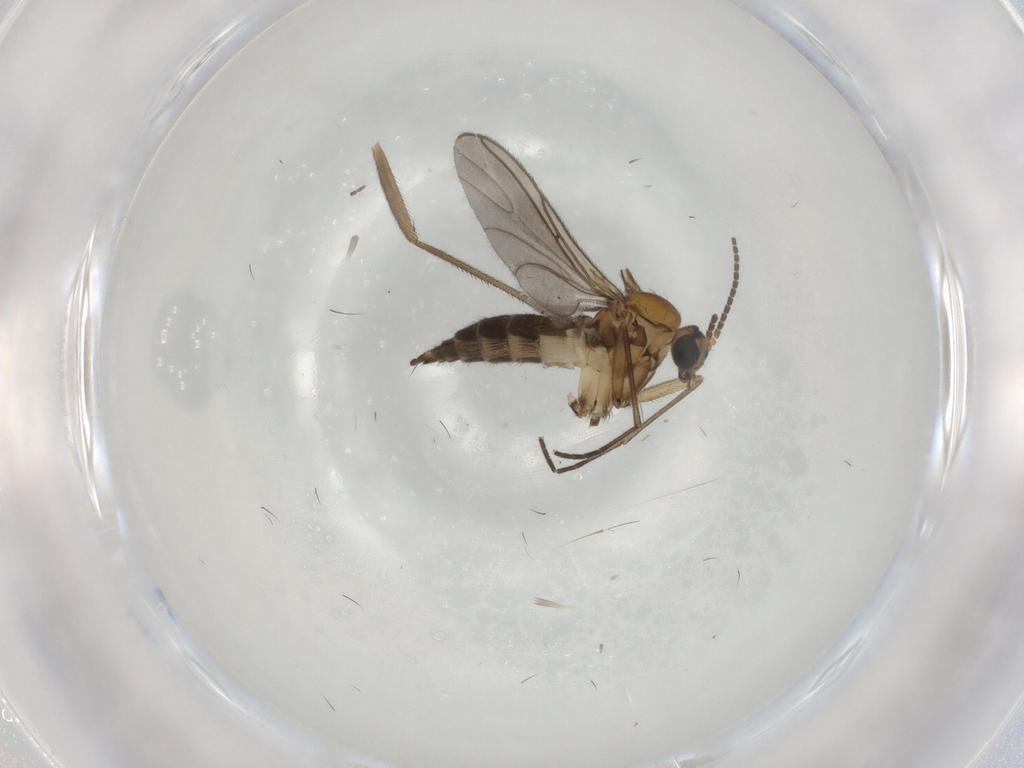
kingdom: Animalia
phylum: Arthropoda
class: Insecta
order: Diptera
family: Sciaridae
